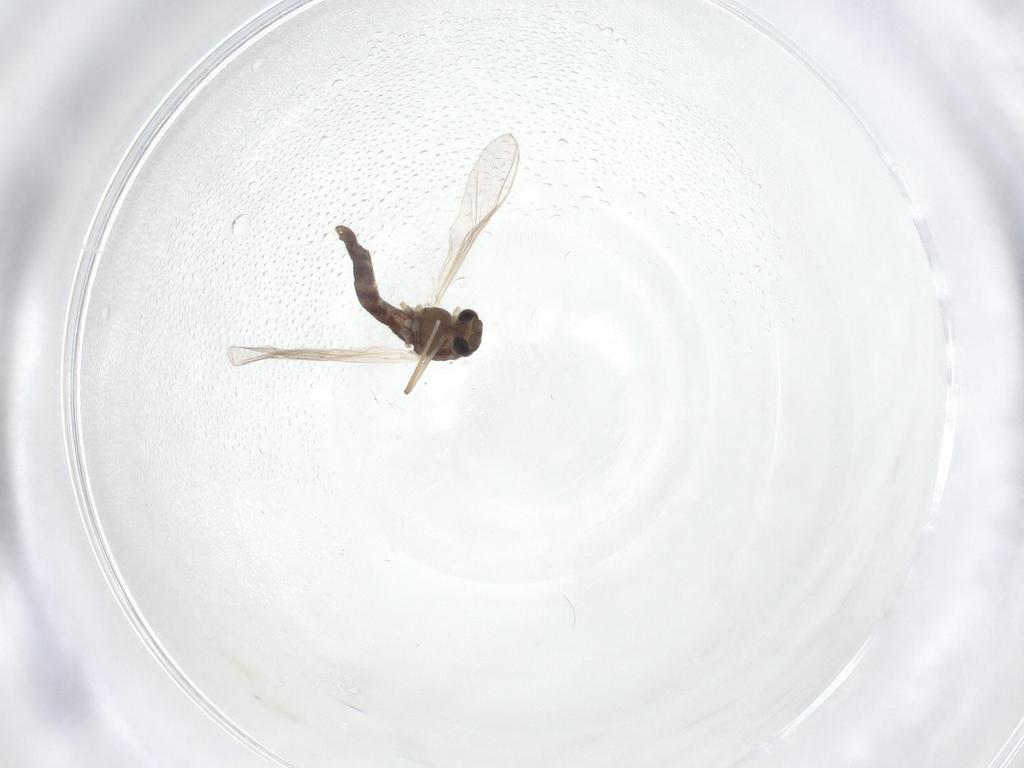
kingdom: Animalia
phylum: Arthropoda
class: Insecta
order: Diptera
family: Chironomidae
